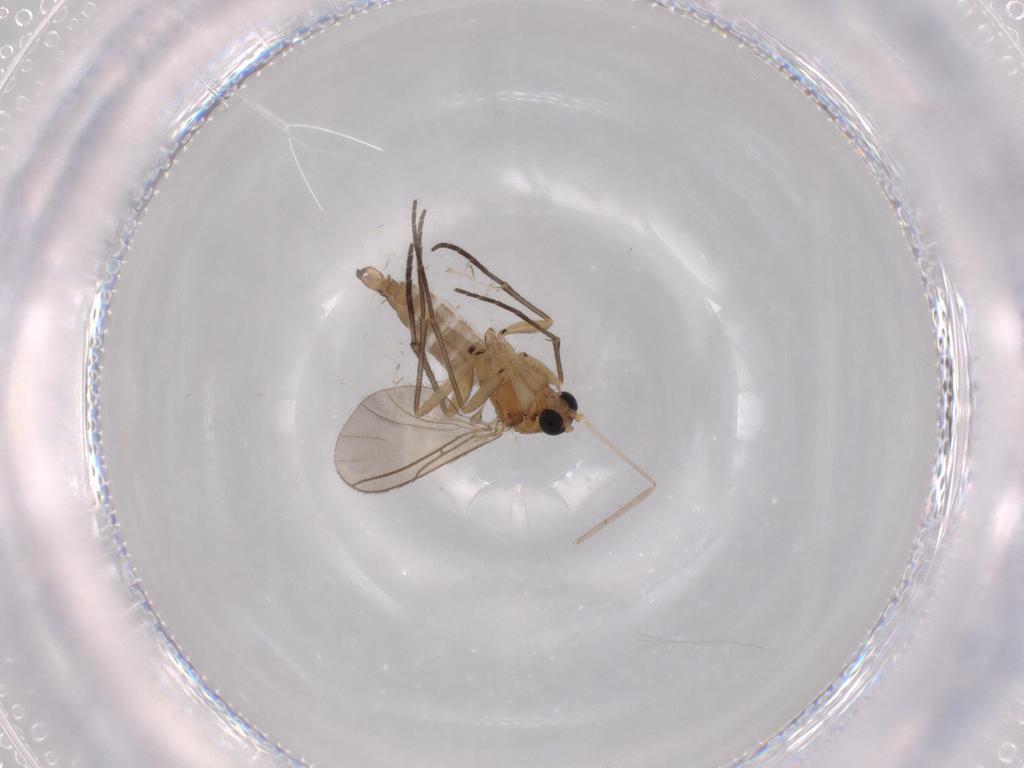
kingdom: Animalia
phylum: Arthropoda
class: Insecta
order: Diptera
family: Sciaridae
